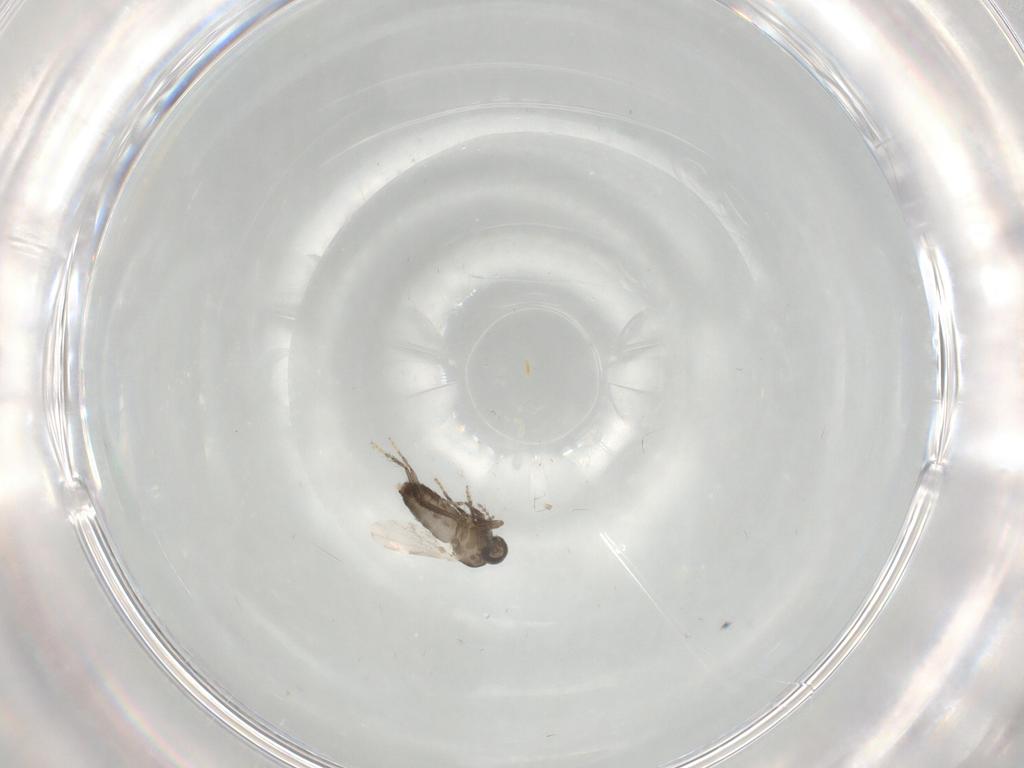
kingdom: Animalia
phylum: Arthropoda
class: Insecta
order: Diptera
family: Ceratopogonidae
